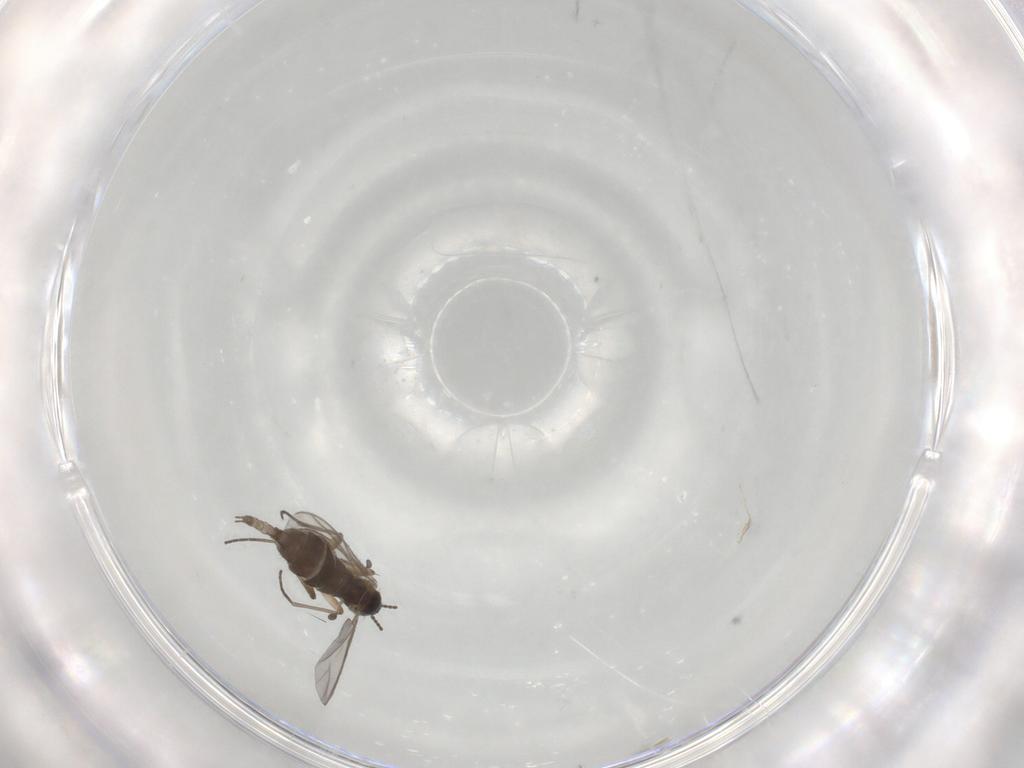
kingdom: Animalia
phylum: Arthropoda
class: Insecta
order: Diptera
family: Sciaridae
